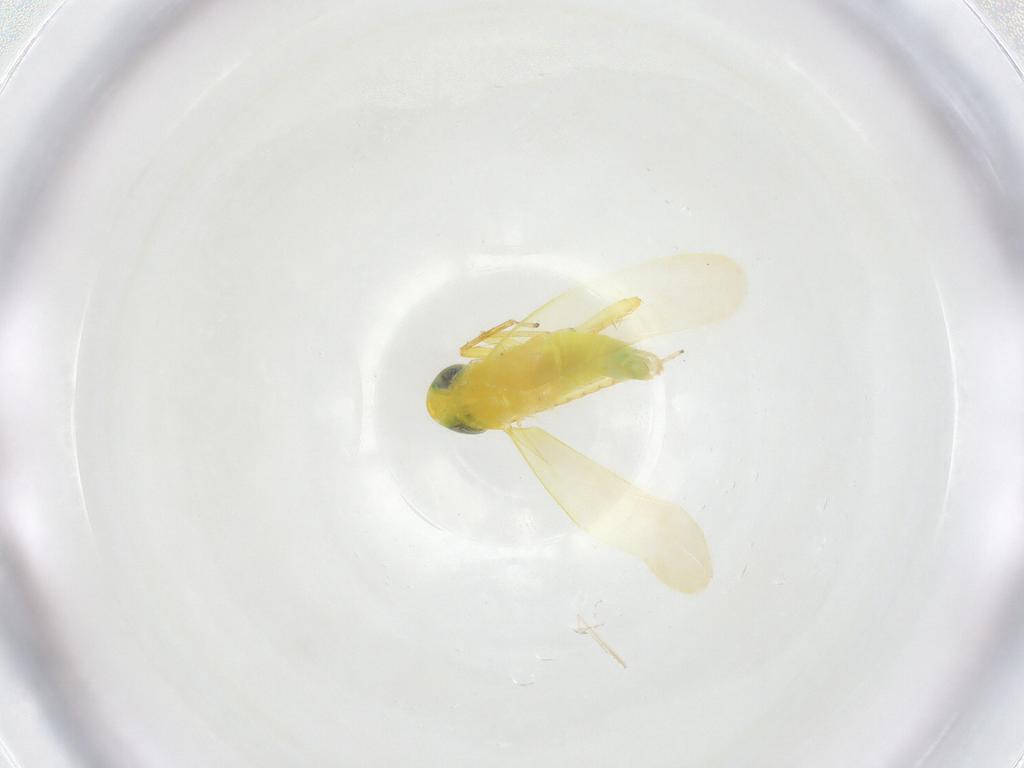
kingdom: Animalia
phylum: Arthropoda
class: Insecta
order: Hemiptera
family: Cicadellidae
